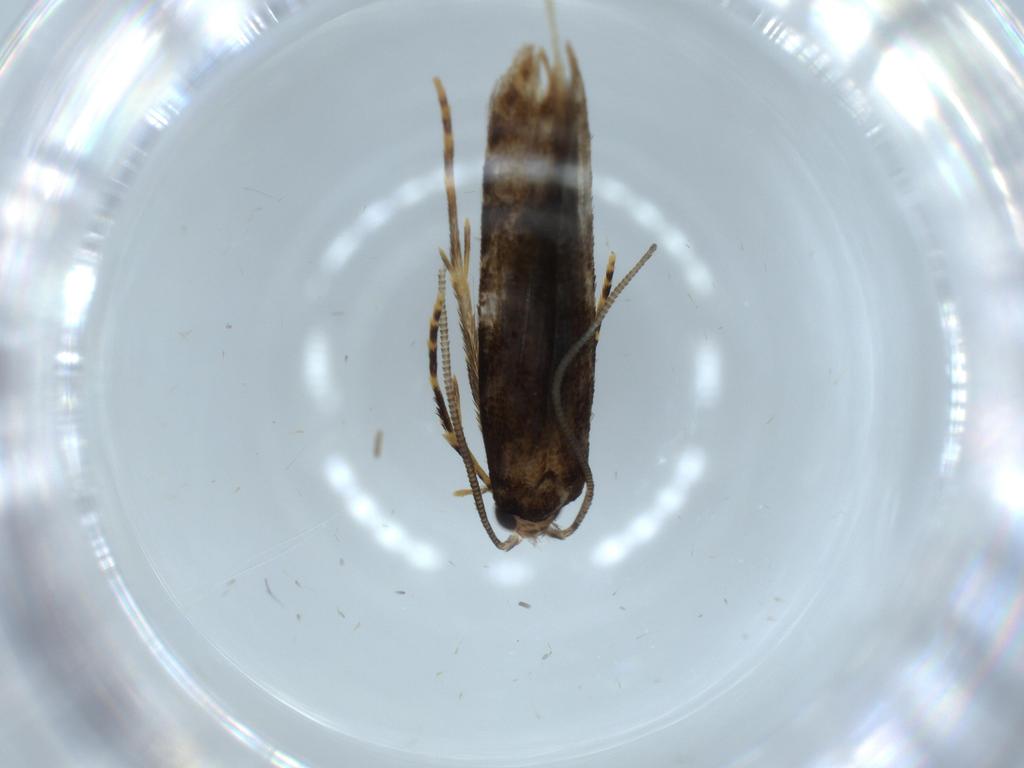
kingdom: Animalia
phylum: Arthropoda
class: Insecta
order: Lepidoptera
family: Tineidae
